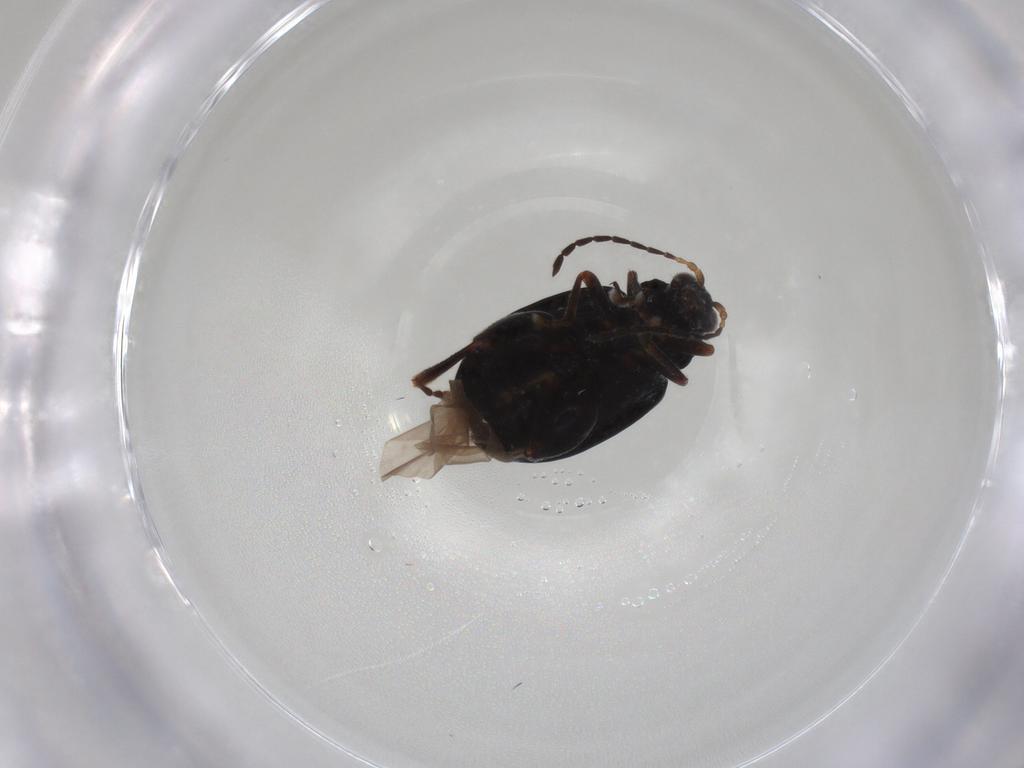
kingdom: Animalia
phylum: Arthropoda
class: Insecta
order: Coleoptera
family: Chrysomelidae
